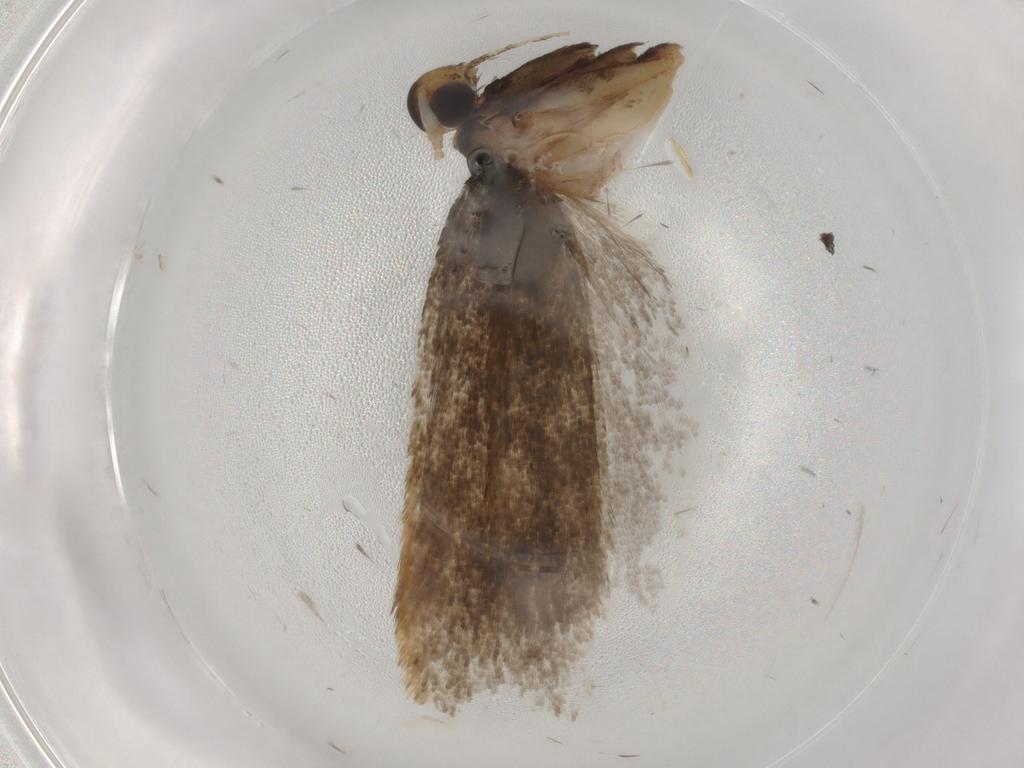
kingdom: Animalia
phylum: Arthropoda
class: Insecta
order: Lepidoptera
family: Lecithoceridae
